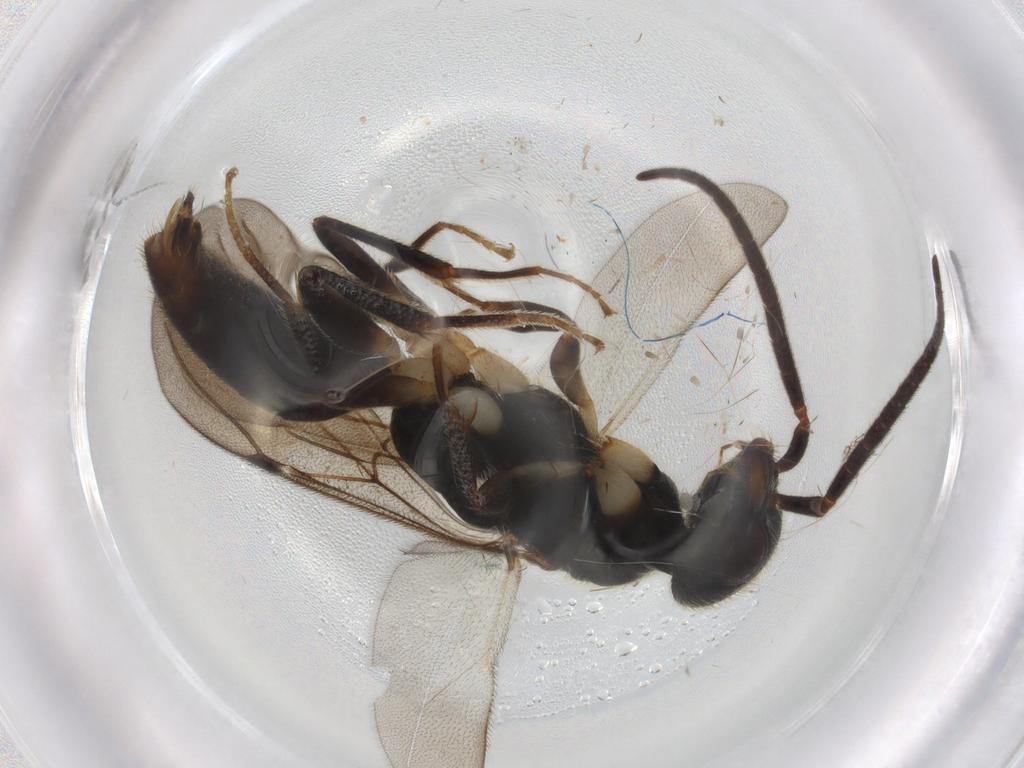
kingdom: Animalia
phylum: Arthropoda
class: Insecta
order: Hymenoptera
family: Bethylidae
